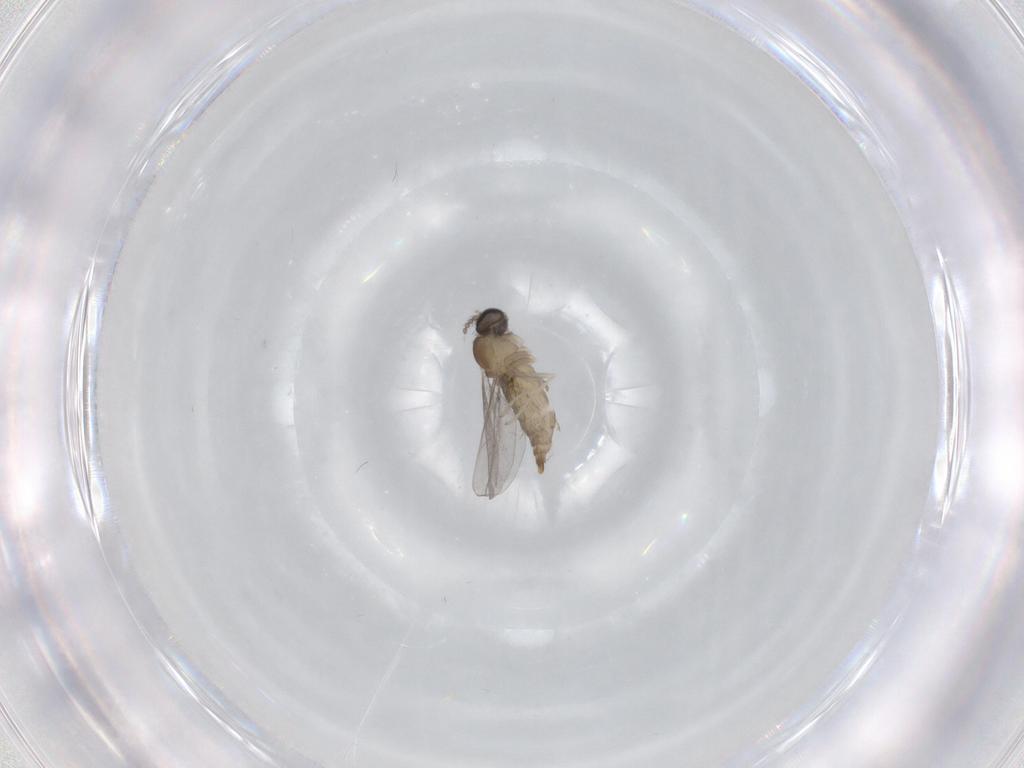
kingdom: Animalia
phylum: Arthropoda
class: Insecta
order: Diptera
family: Cecidomyiidae
